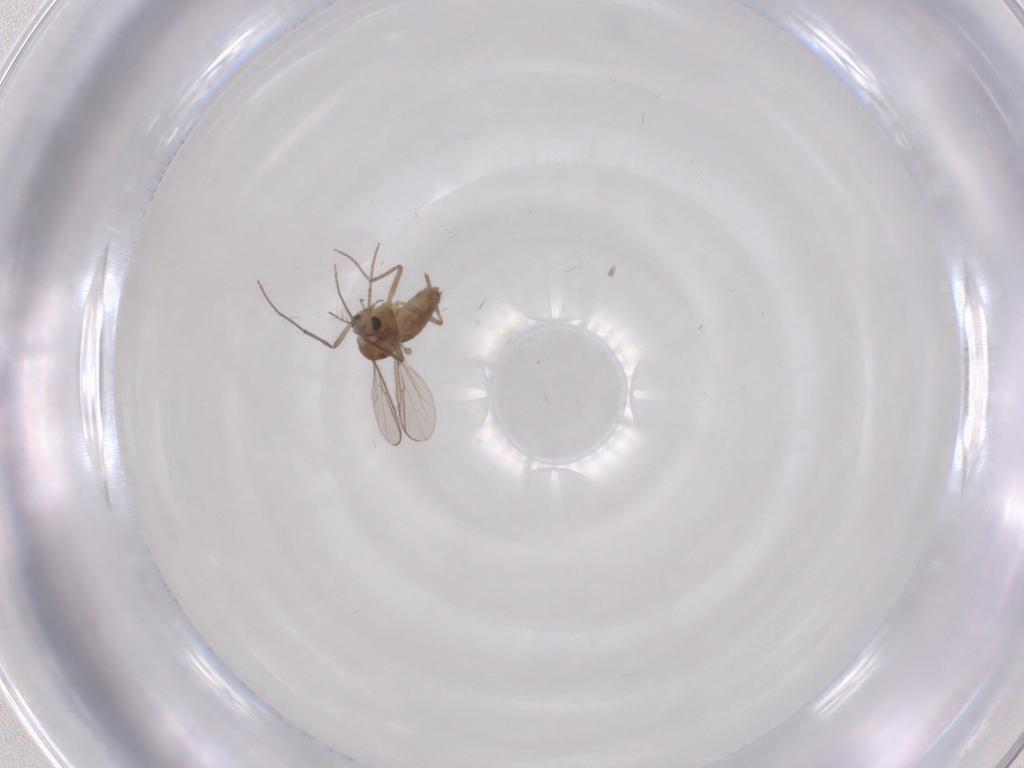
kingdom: Animalia
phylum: Arthropoda
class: Insecta
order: Diptera
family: Chironomidae
